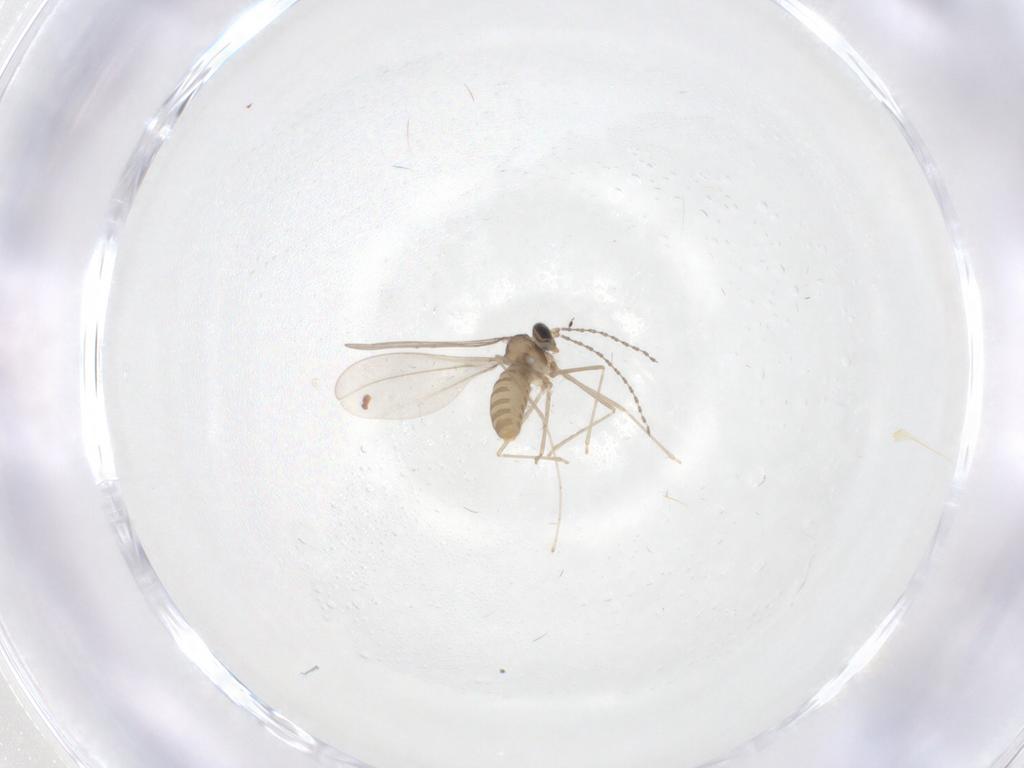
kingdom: Animalia
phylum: Arthropoda
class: Insecta
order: Diptera
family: Cecidomyiidae
